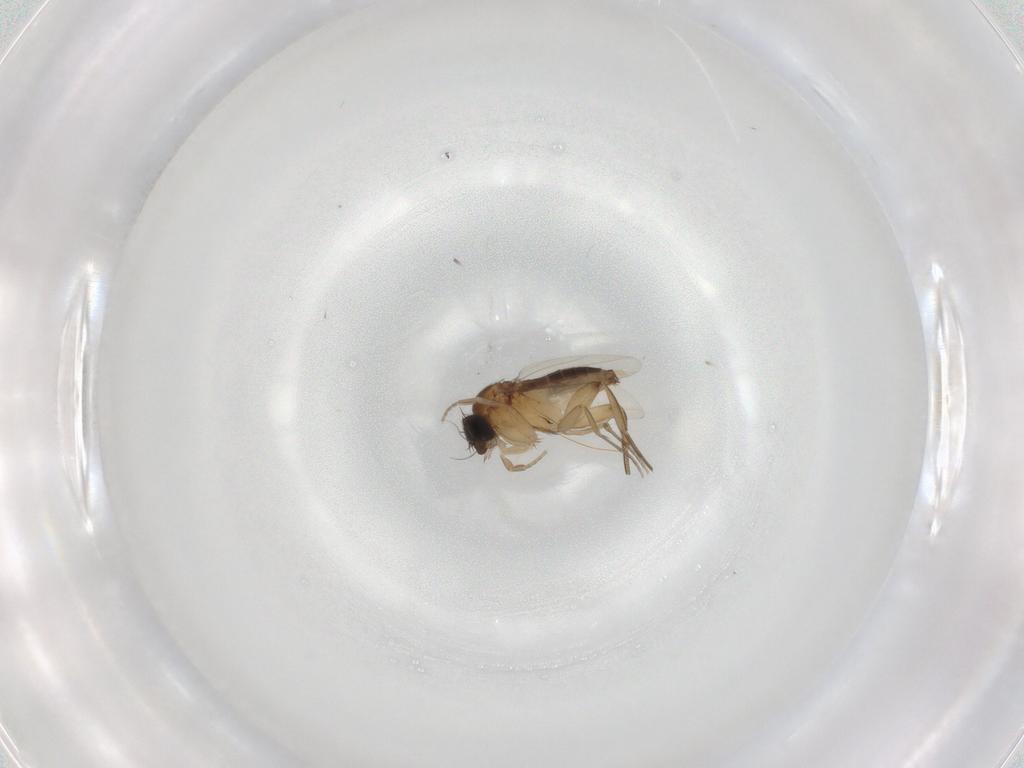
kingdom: Animalia
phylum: Arthropoda
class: Insecta
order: Diptera
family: Phoridae
